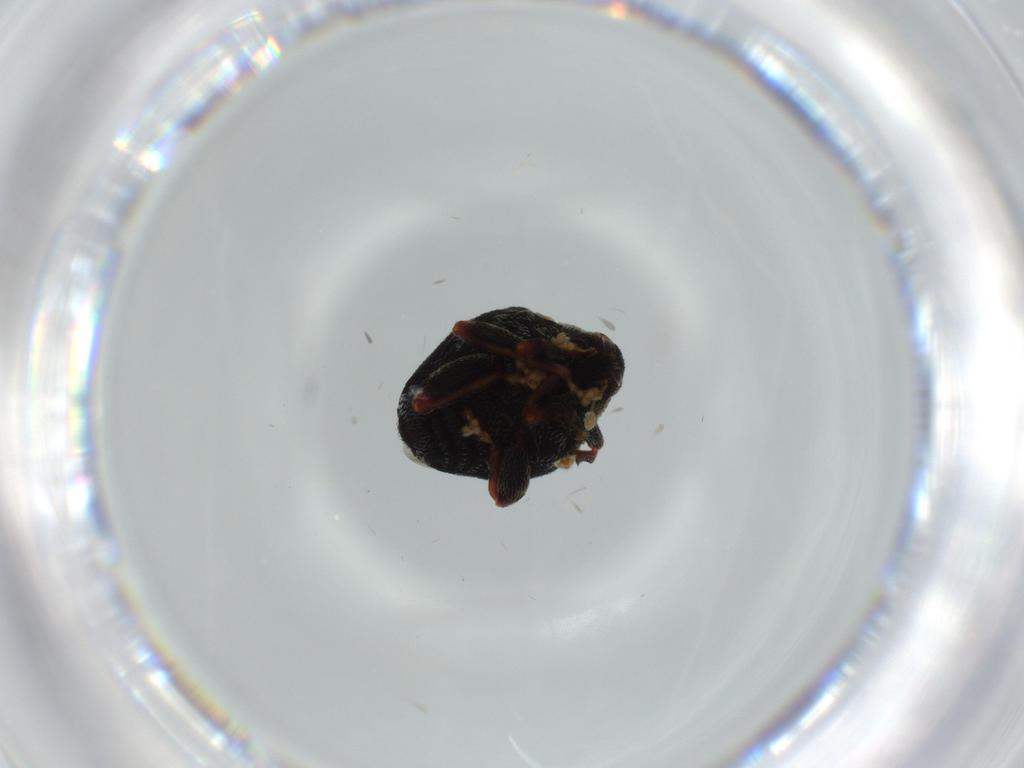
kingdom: Animalia
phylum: Arthropoda
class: Insecta
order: Coleoptera
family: Curculionidae
